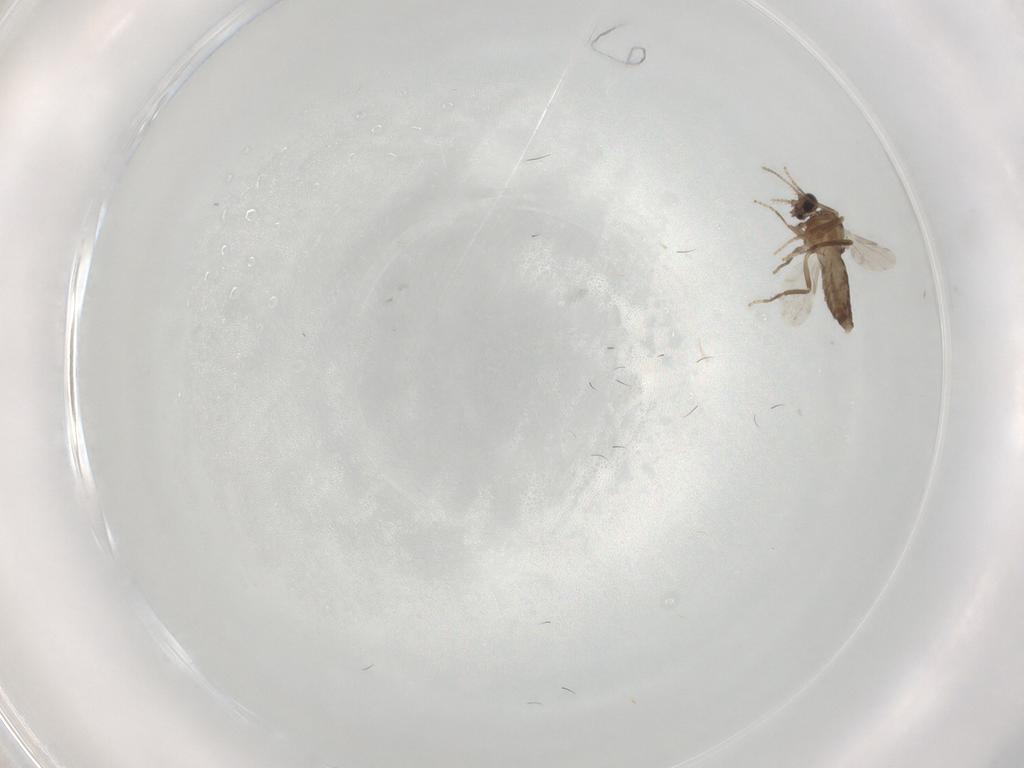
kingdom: Animalia
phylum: Arthropoda
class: Insecta
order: Diptera
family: Ceratopogonidae
